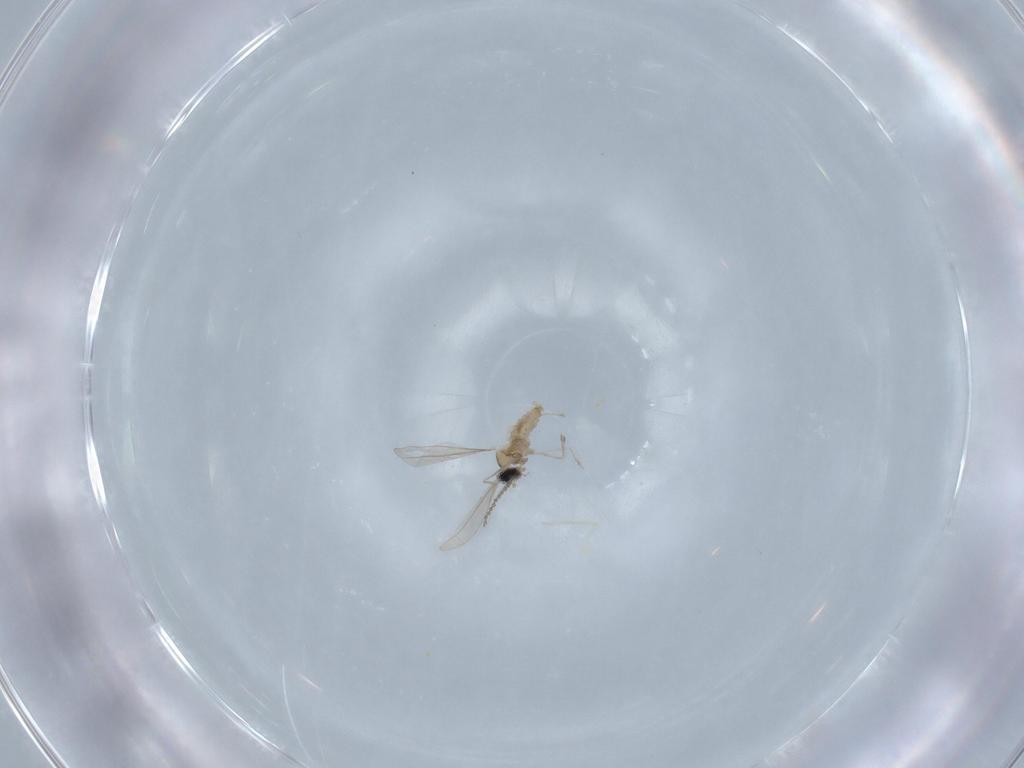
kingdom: Animalia
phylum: Arthropoda
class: Insecta
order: Diptera
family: Cecidomyiidae
